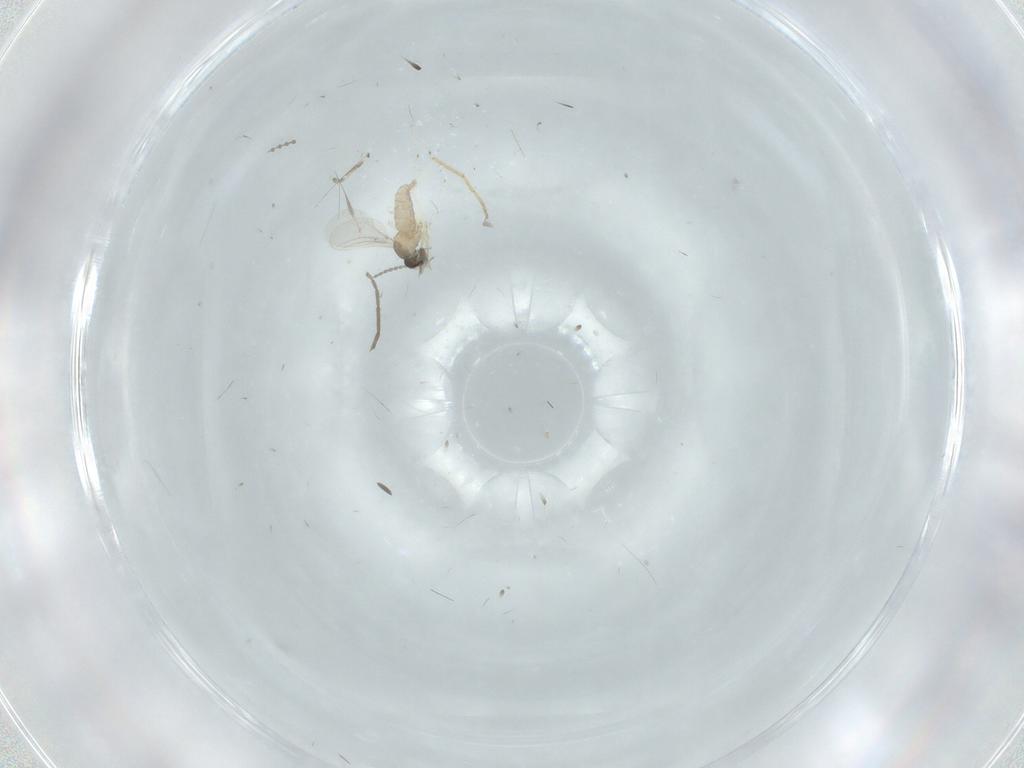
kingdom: Animalia
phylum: Arthropoda
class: Insecta
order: Diptera
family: Cecidomyiidae
